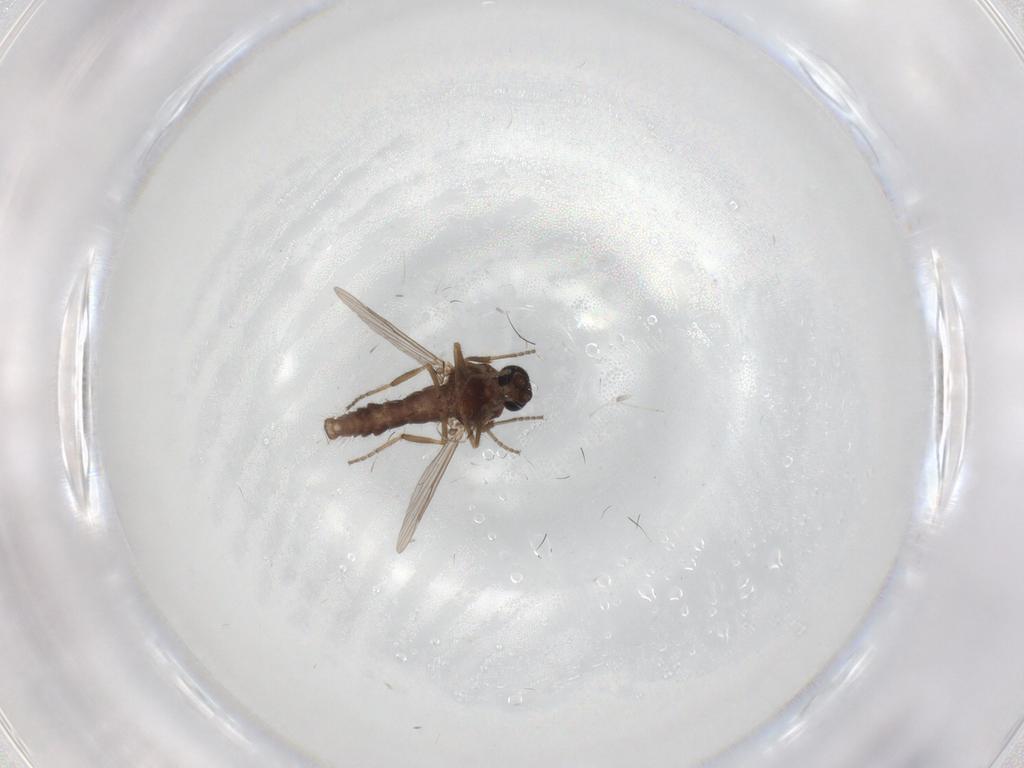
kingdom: Animalia
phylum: Arthropoda
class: Insecta
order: Diptera
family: Ceratopogonidae
